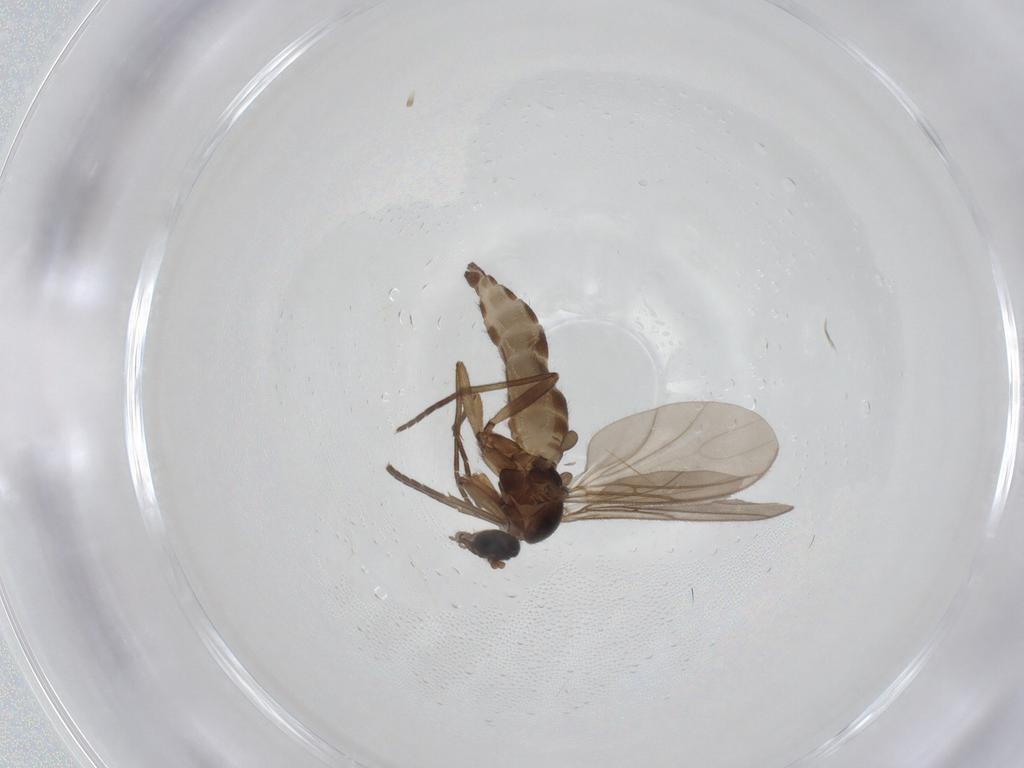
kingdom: Animalia
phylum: Arthropoda
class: Insecta
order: Diptera
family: Sciaridae
